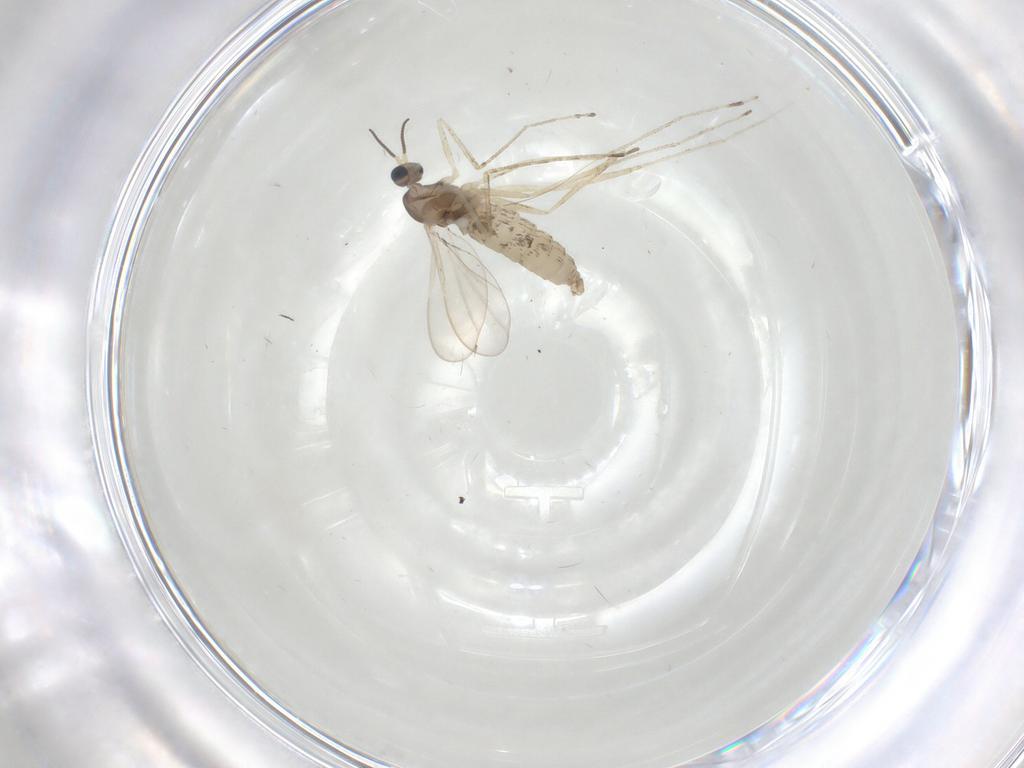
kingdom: Animalia
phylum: Arthropoda
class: Insecta
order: Diptera
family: Cecidomyiidae
